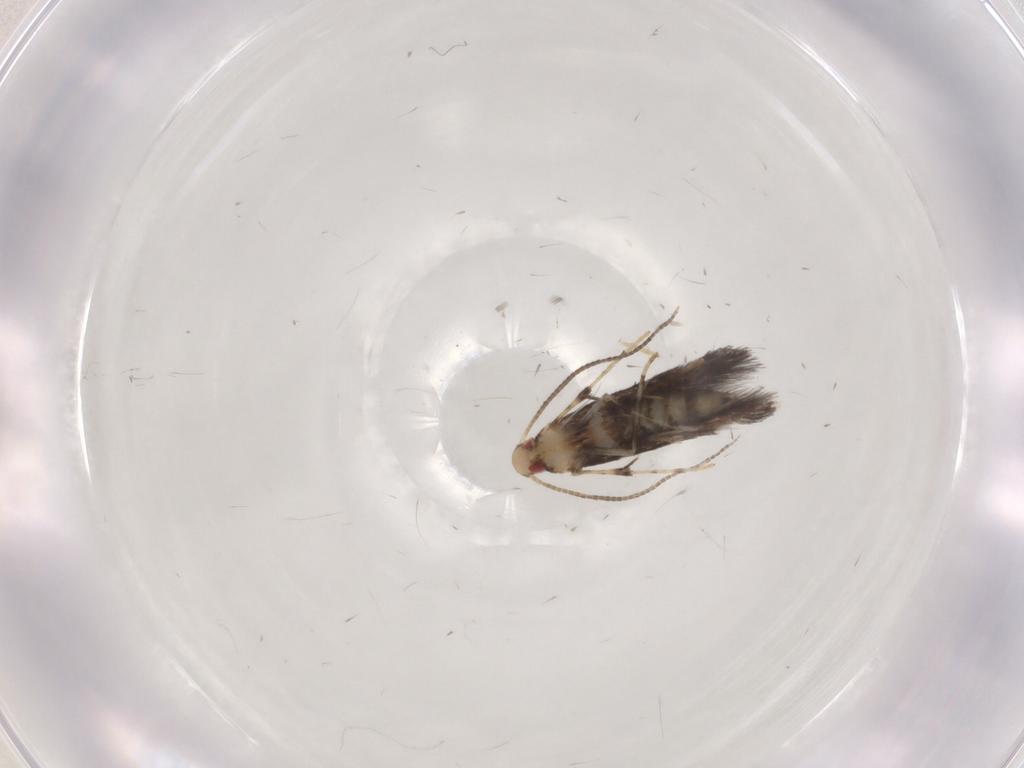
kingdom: Animalia
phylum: Arthropoda
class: Insecta
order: Lepidoptera
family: Gracillariidae
